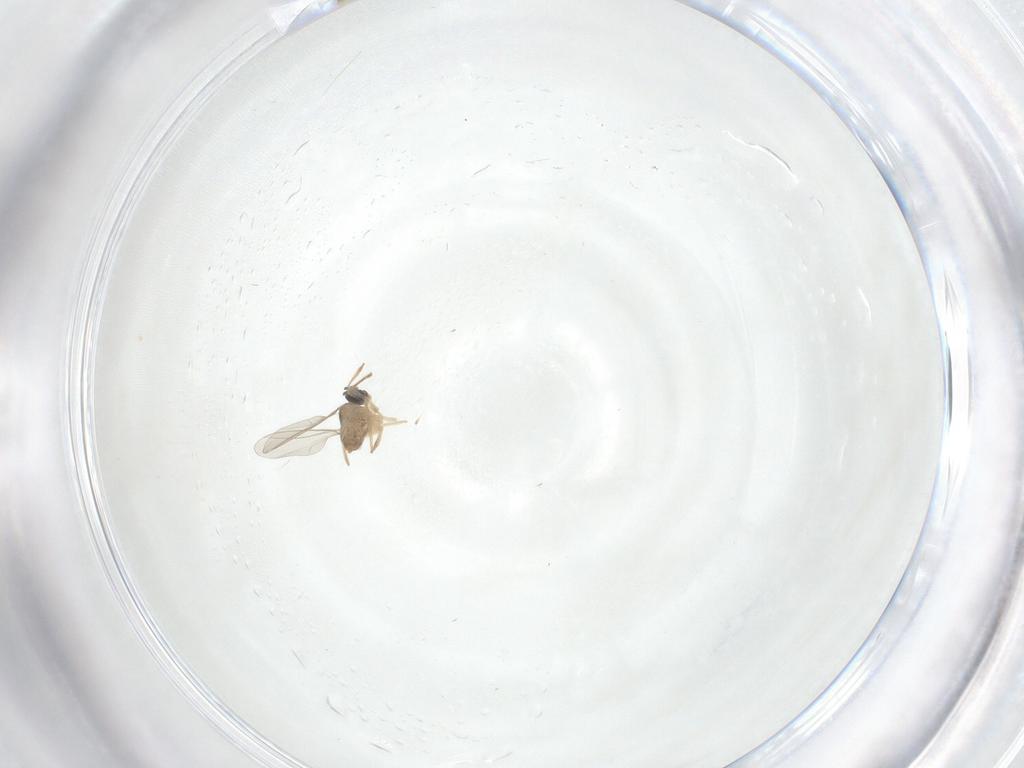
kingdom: Animalia
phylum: Arthropoda
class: Insecta
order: Diptera
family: Cecidomyiidae
